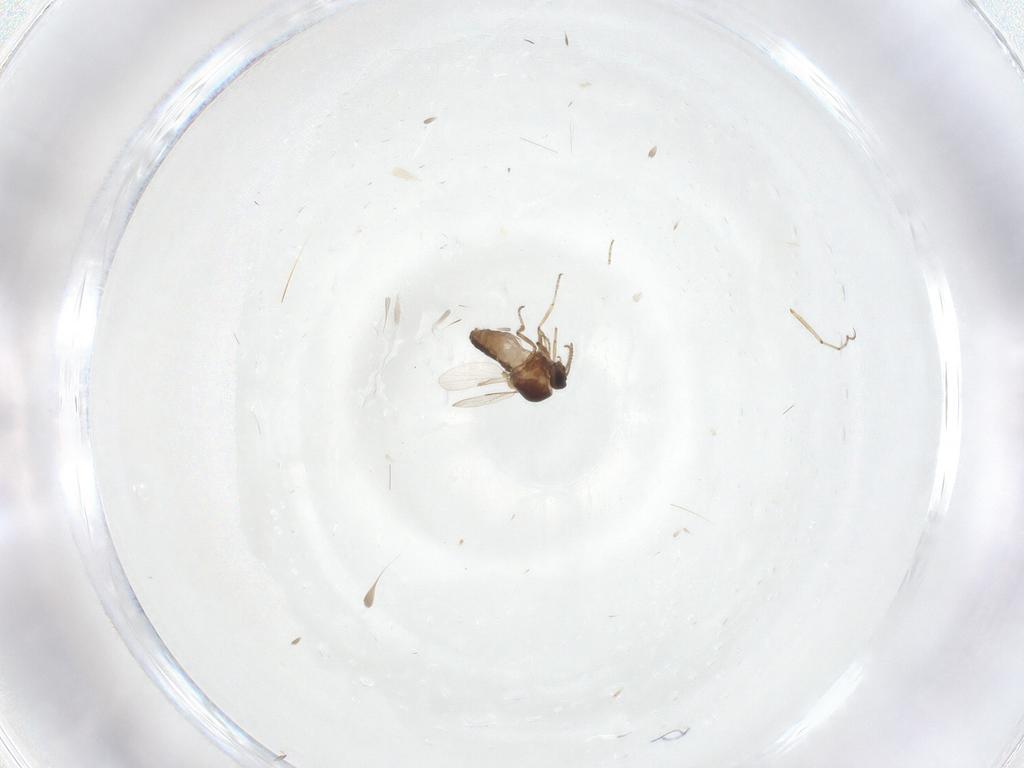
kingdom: Animalia
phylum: Arthropoda
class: Insecta
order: Diptera
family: Ceratopogonidae
